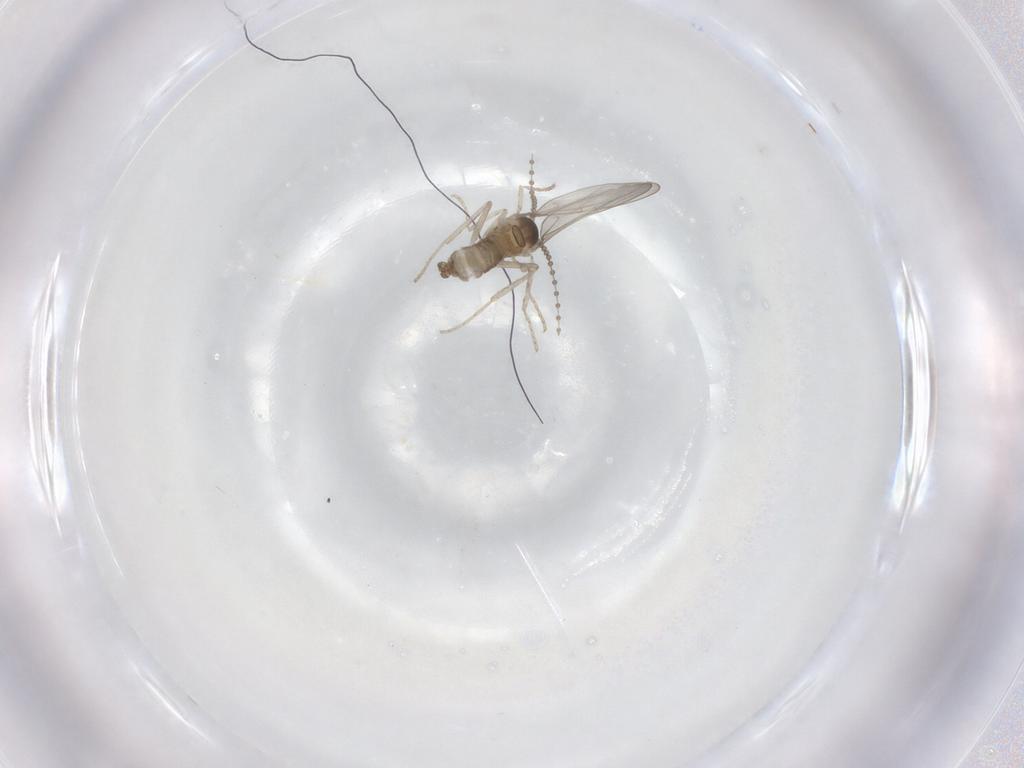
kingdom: Animalia
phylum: Arthropoda
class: Insecta
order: Diptera
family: Cecidomyiidae
